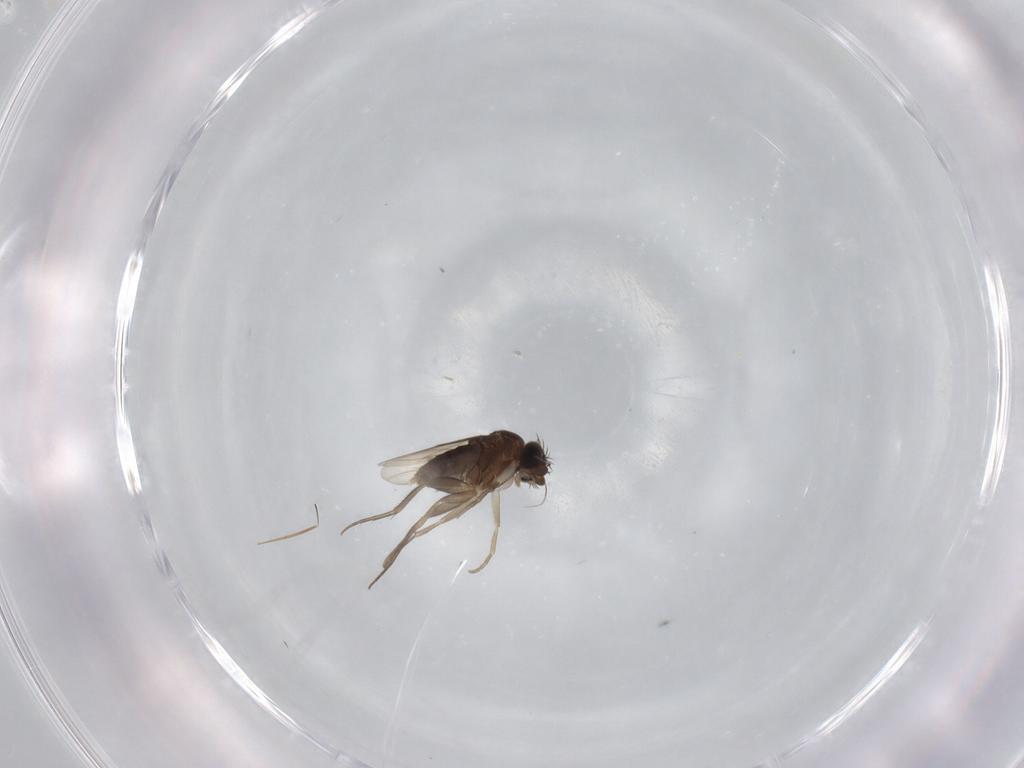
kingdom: Animalia
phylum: Arthropoda
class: Insecta
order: Diptera
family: Phoridae
